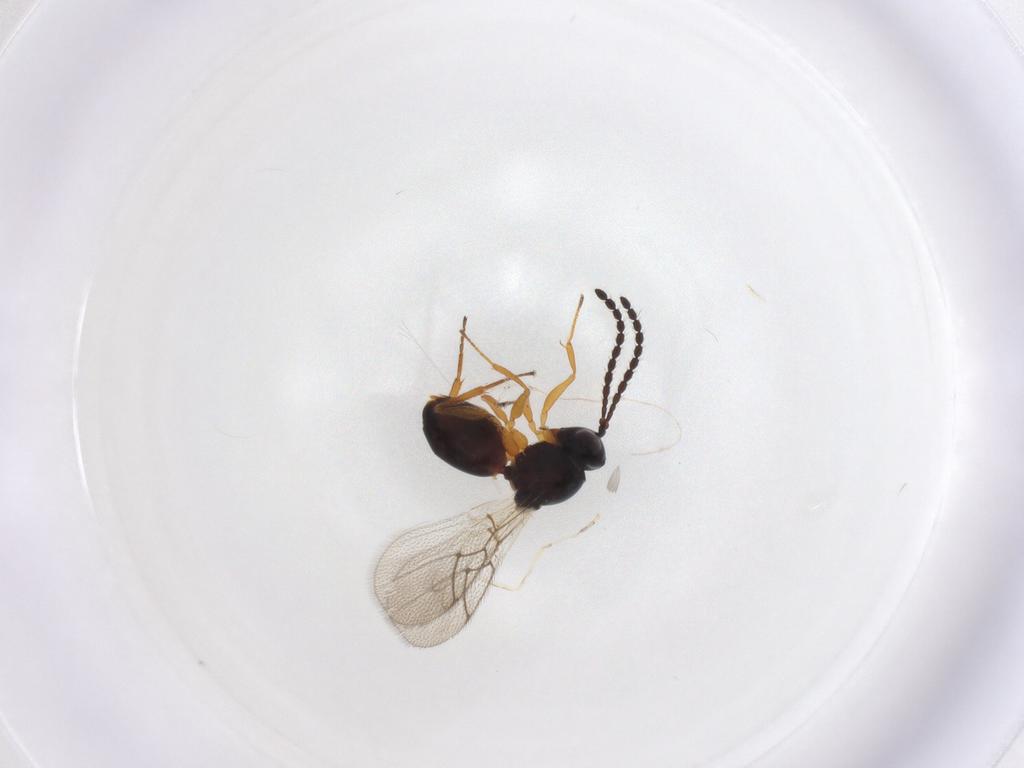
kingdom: Animalia
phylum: Arthropoda
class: Insecta
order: Hymenoptera
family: Figitidae
